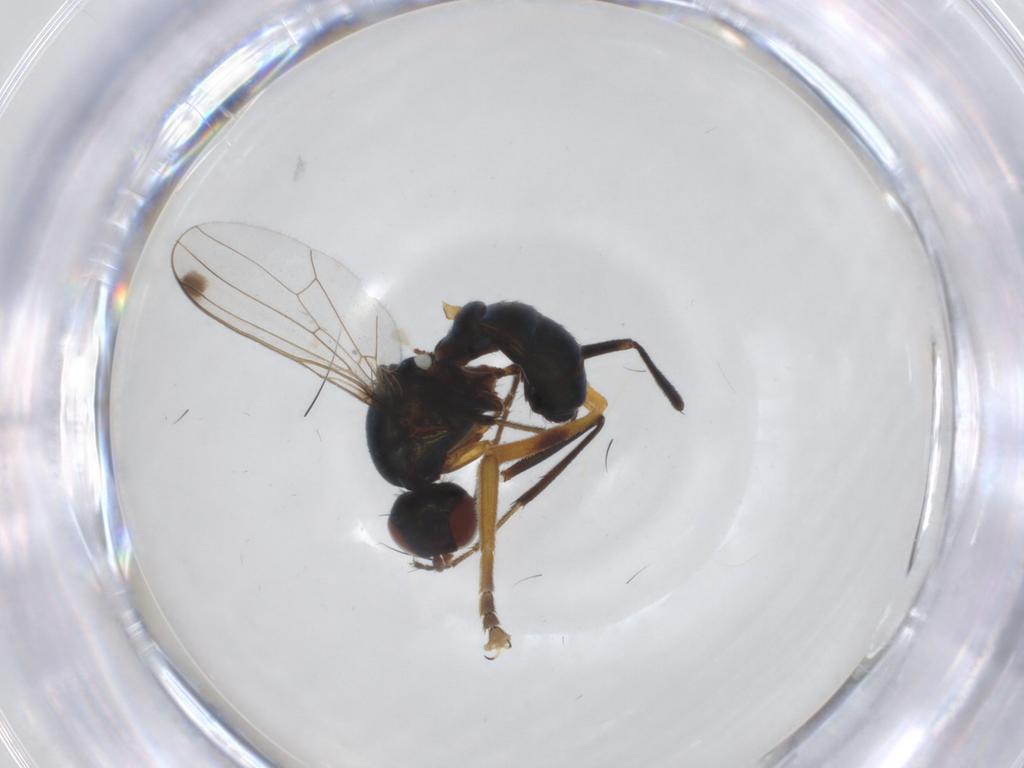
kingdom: Animalia
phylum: Arthropoda
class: Insecta
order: Diptera
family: Sepsidae
